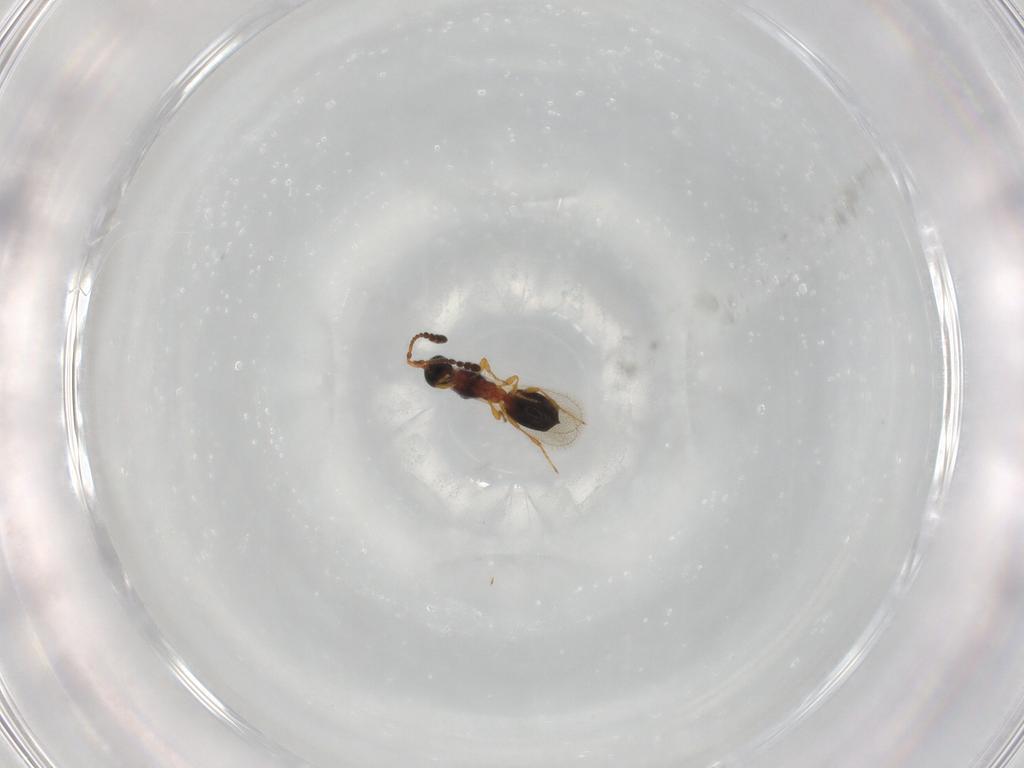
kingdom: Animalia
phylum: Arthropoda
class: Insecta
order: Hymenoptera
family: Diapriidae
